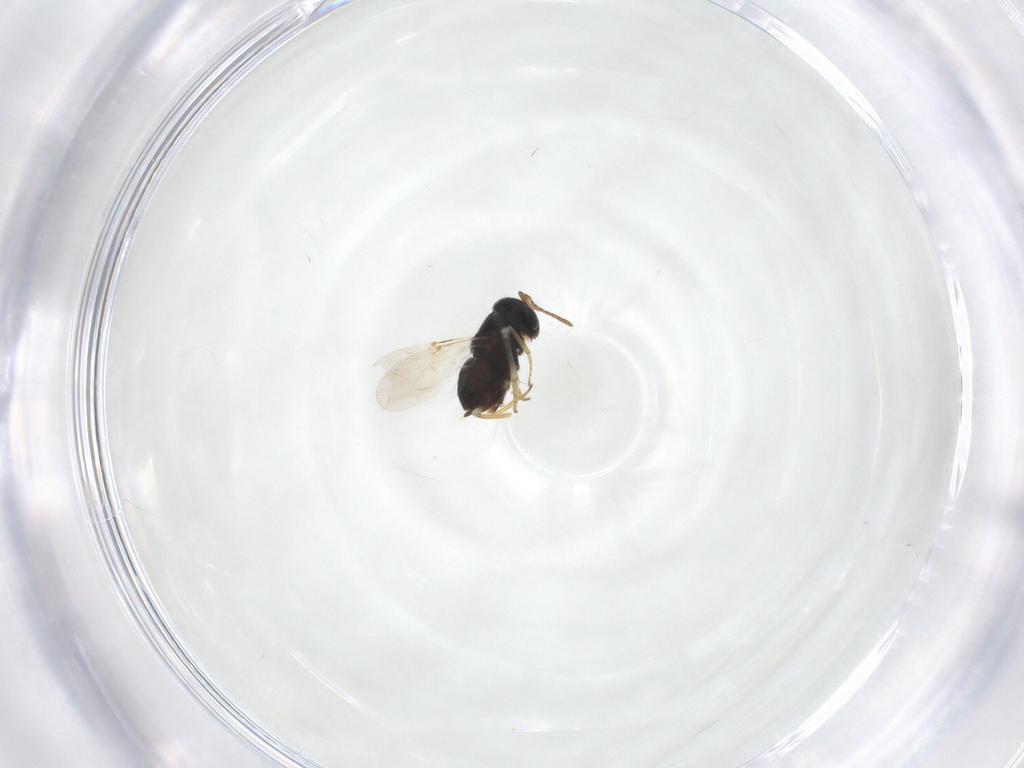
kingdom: Animalia
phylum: Arthropoda
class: Insecta
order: Hymenoptera
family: Encyrtidae
